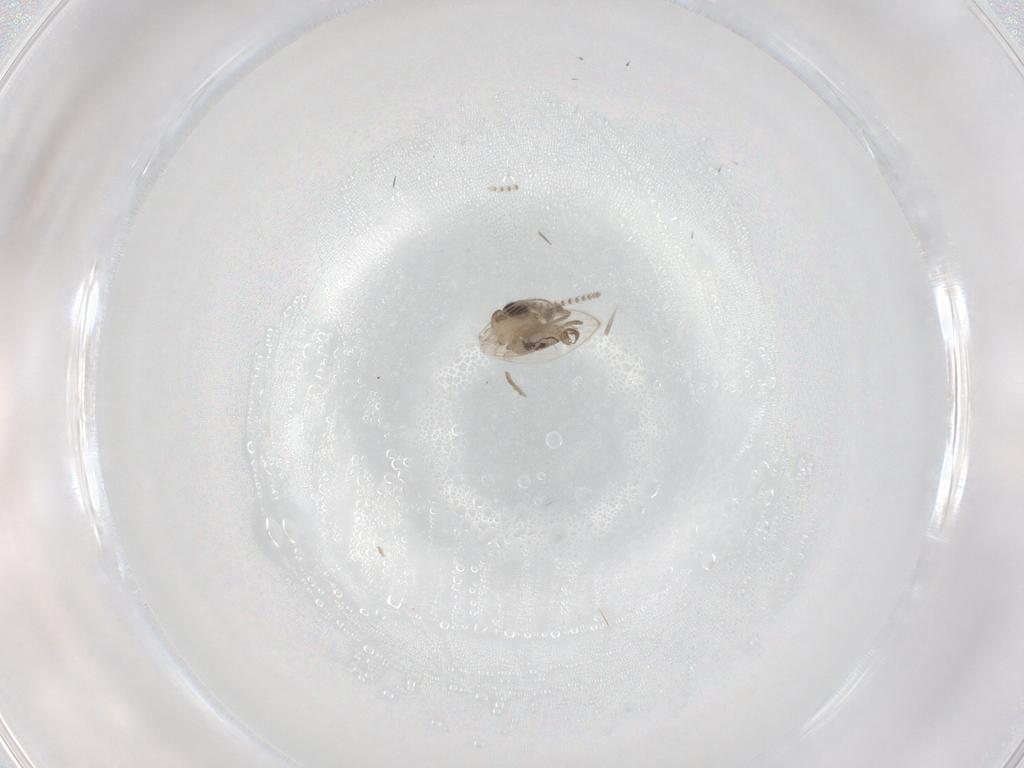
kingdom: Animalia
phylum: Arthropoda
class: Insecta
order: Diptera
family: Psychodidae
